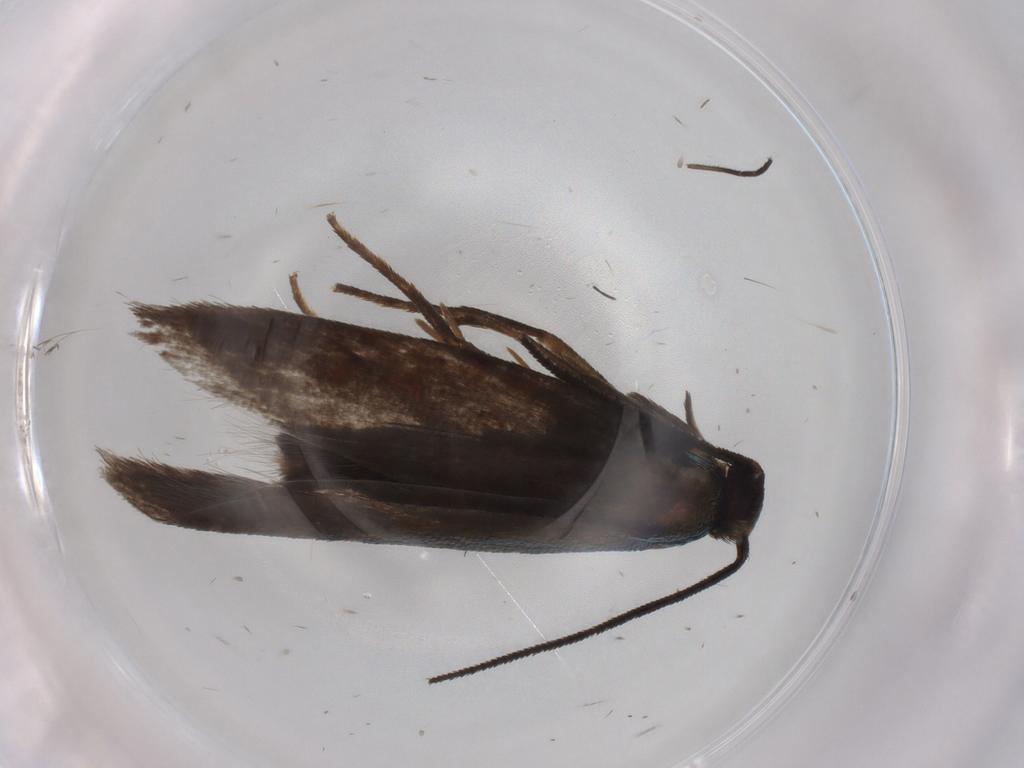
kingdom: Animalia
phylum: Arthropoda
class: Insecta
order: Lepidoptera
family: Argyresthiidae
